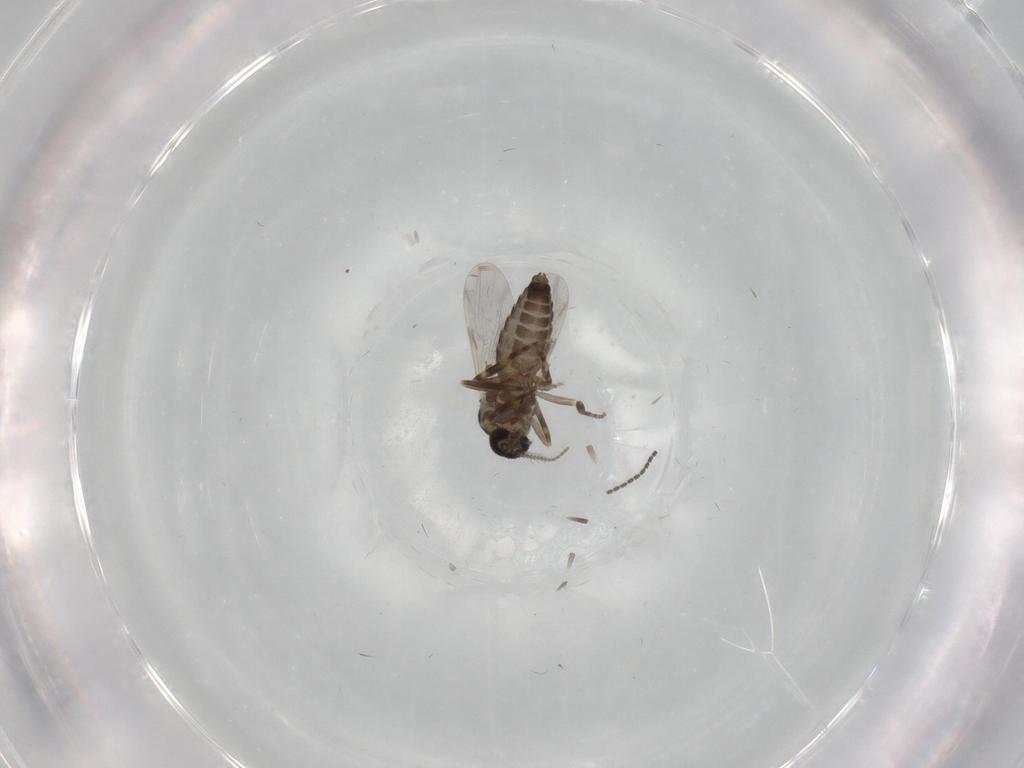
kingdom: Animalia
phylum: Arthropoda
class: Insecta
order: Diptera
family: Ceratopogonidae
